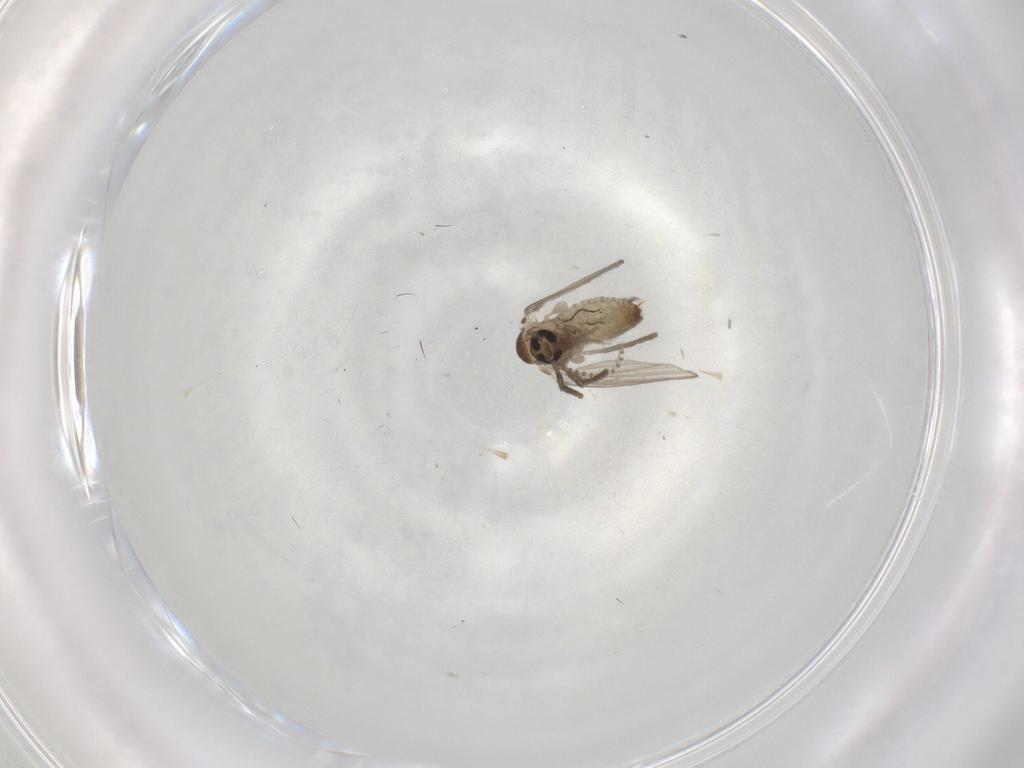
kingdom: Animalia
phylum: Arthropoda
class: Insecta
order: Diptera
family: Psychodidae
